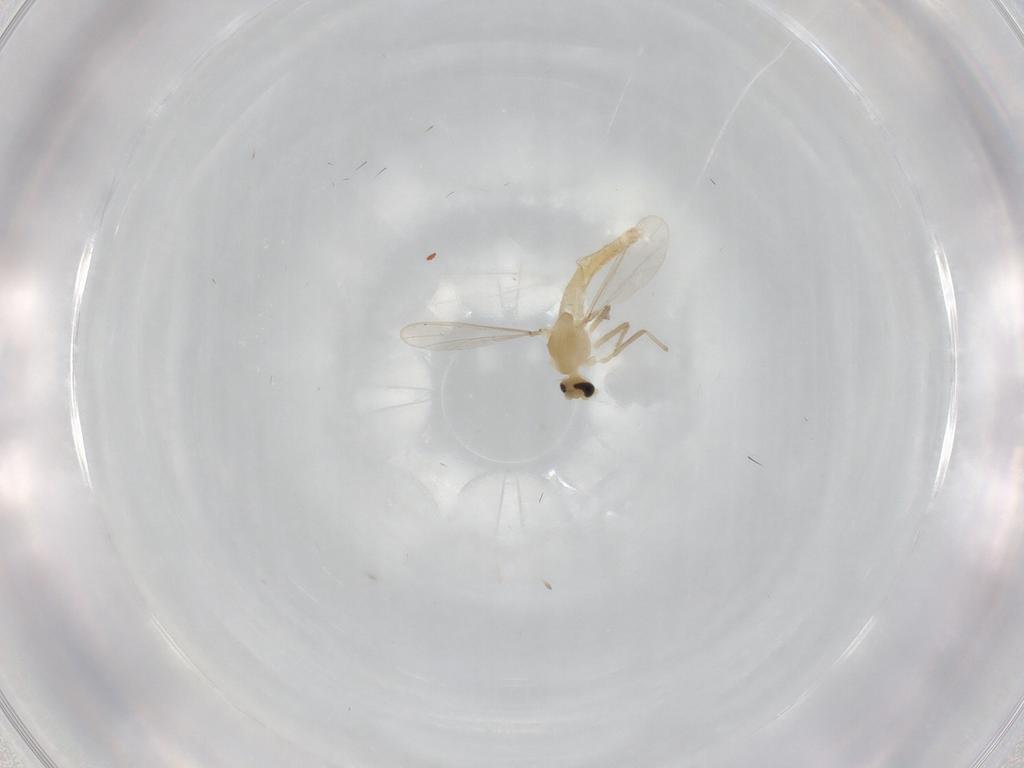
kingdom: Animalia
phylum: Arthropoda
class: Insecta
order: Diptera
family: Chironomidae
